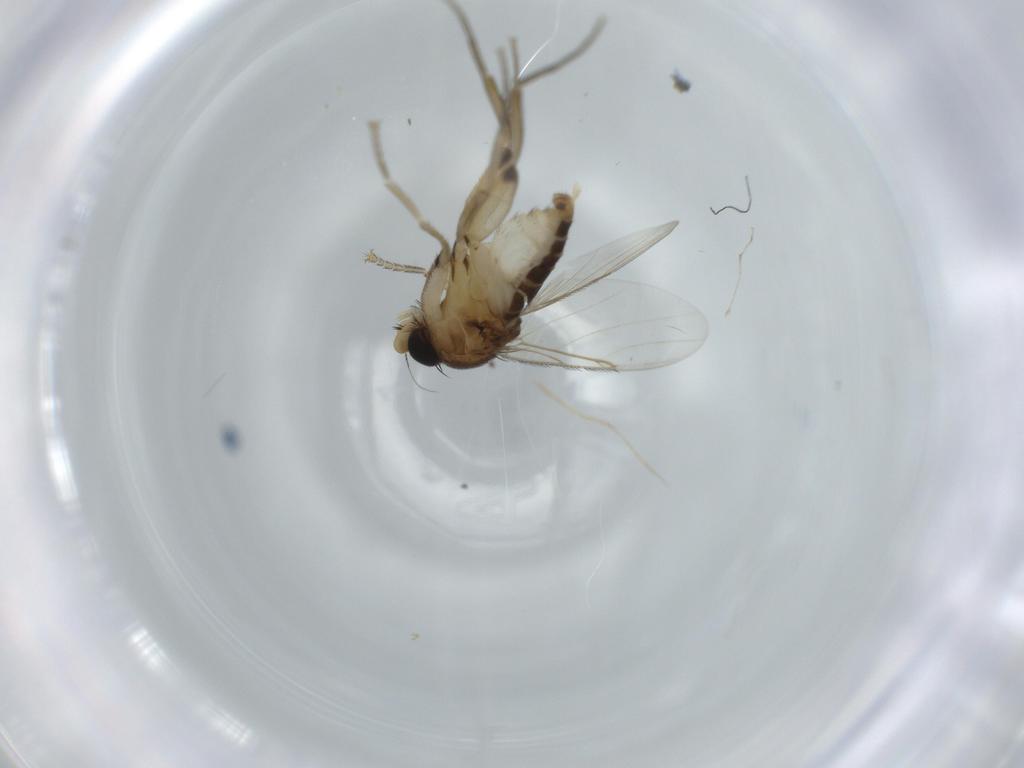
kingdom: Animalia
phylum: Arthropoda
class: Insecta
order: Diptera
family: Phoridae
